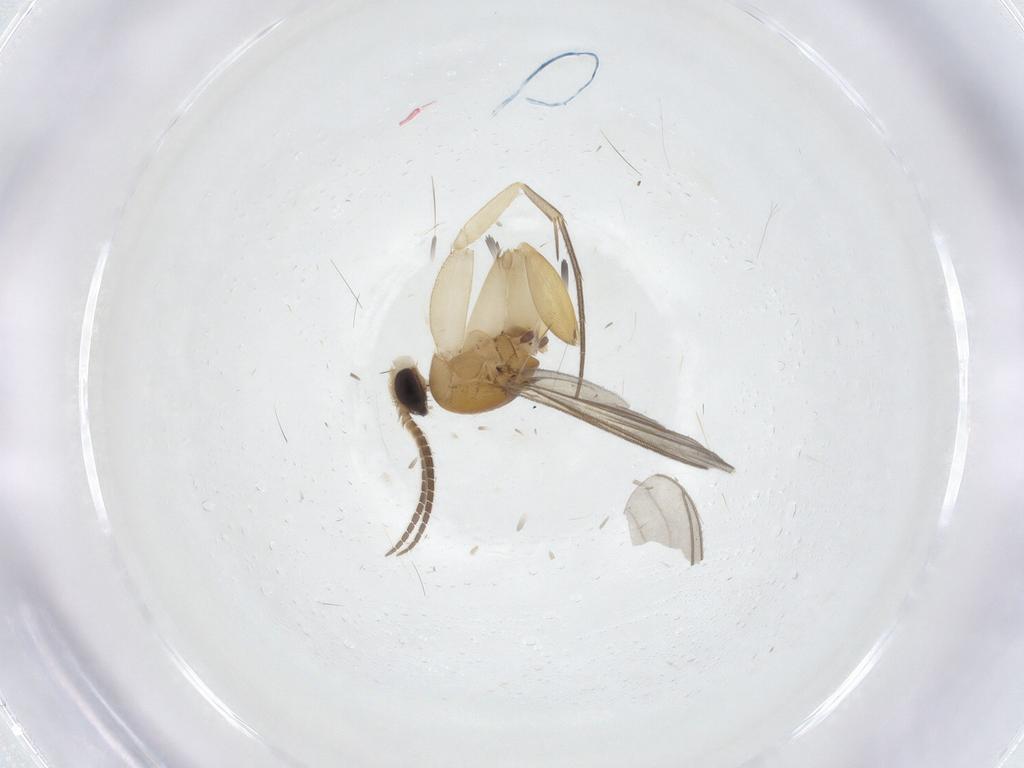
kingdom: Animalia
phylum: Arthropoda
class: Insecta
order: Diptera
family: Mycetophilidae
